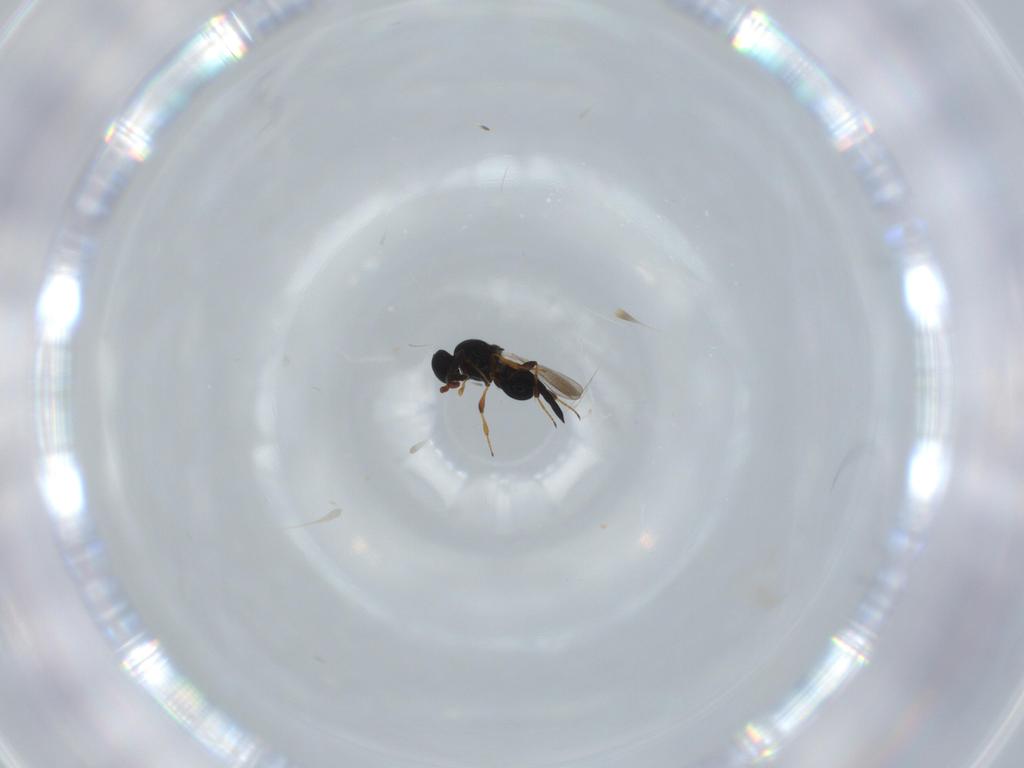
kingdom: Animalia
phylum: Arthropoda
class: Insecta
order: Hymenoptera
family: Platygastridae
